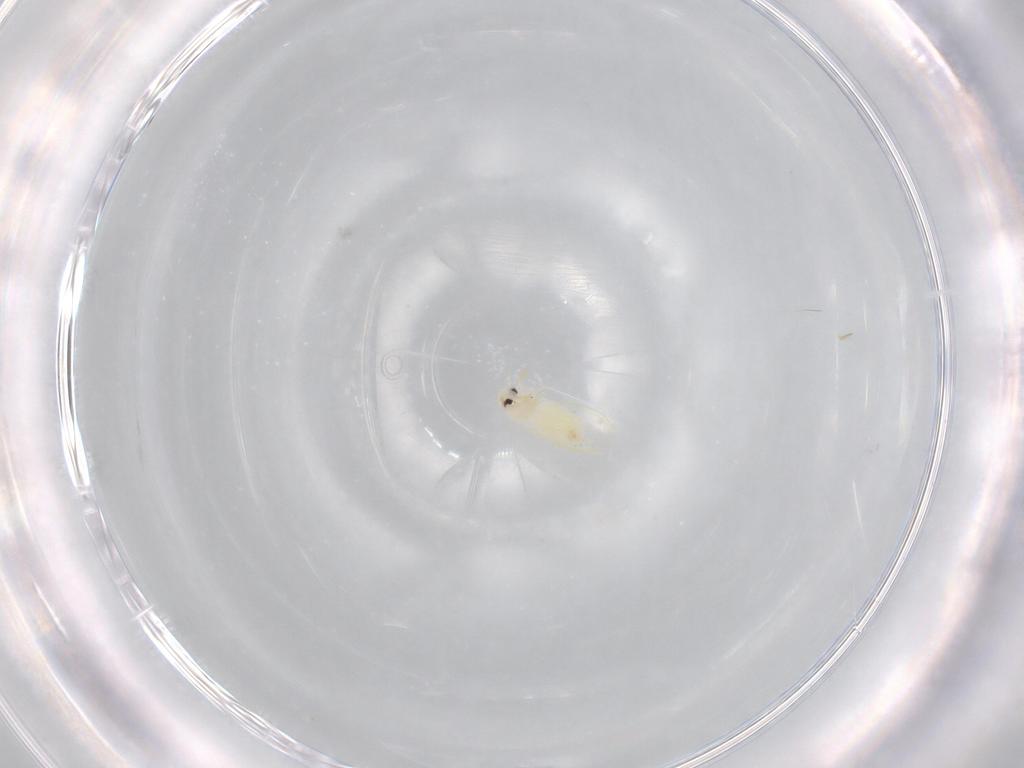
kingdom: Animalia
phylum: Arthropoda
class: Insecta
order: Hemiptera
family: Aleyrodidae
